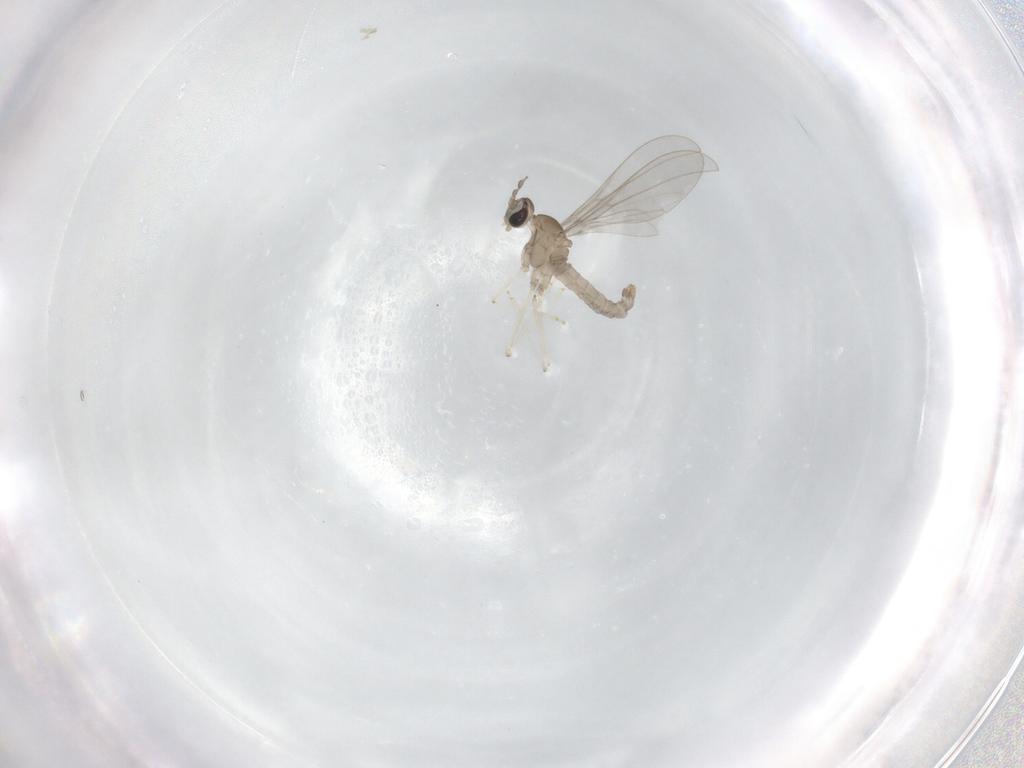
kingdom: Animalia
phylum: Arthropoda
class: Insecta
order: Diptera
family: Cecidomyiidae
